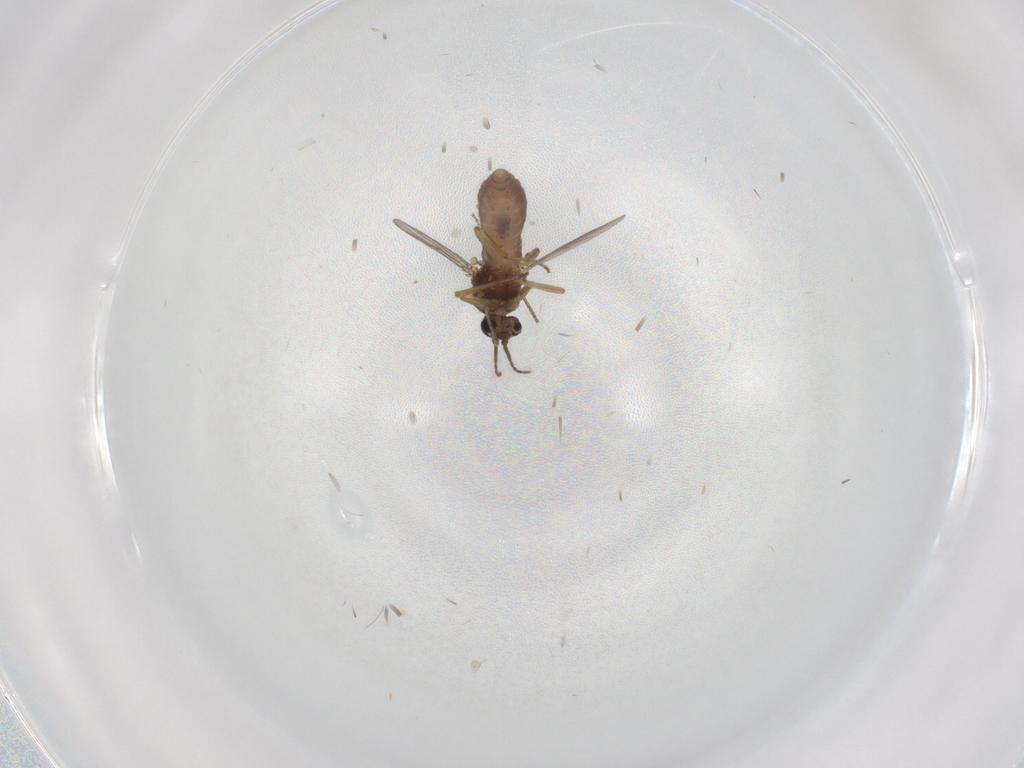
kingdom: Animalia
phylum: Arthropoda
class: Insecta
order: Diptera
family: Ceratopogonidae
